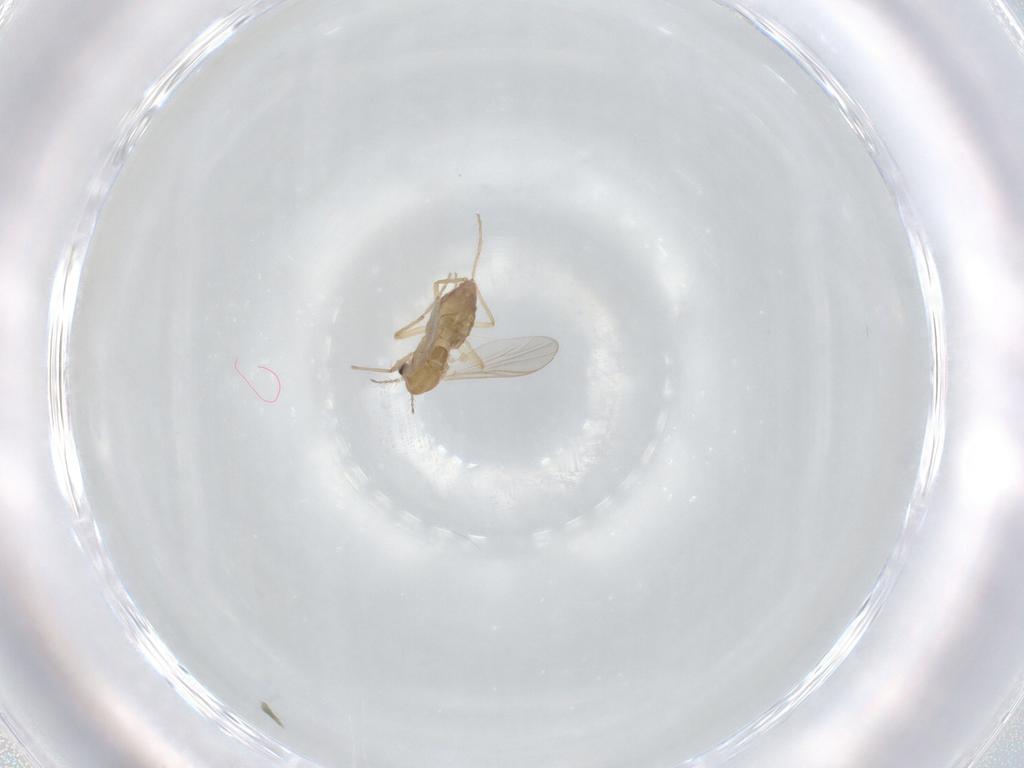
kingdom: Animalia
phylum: Arthropoda
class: Insecta
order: Diptera
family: Chironomidae
